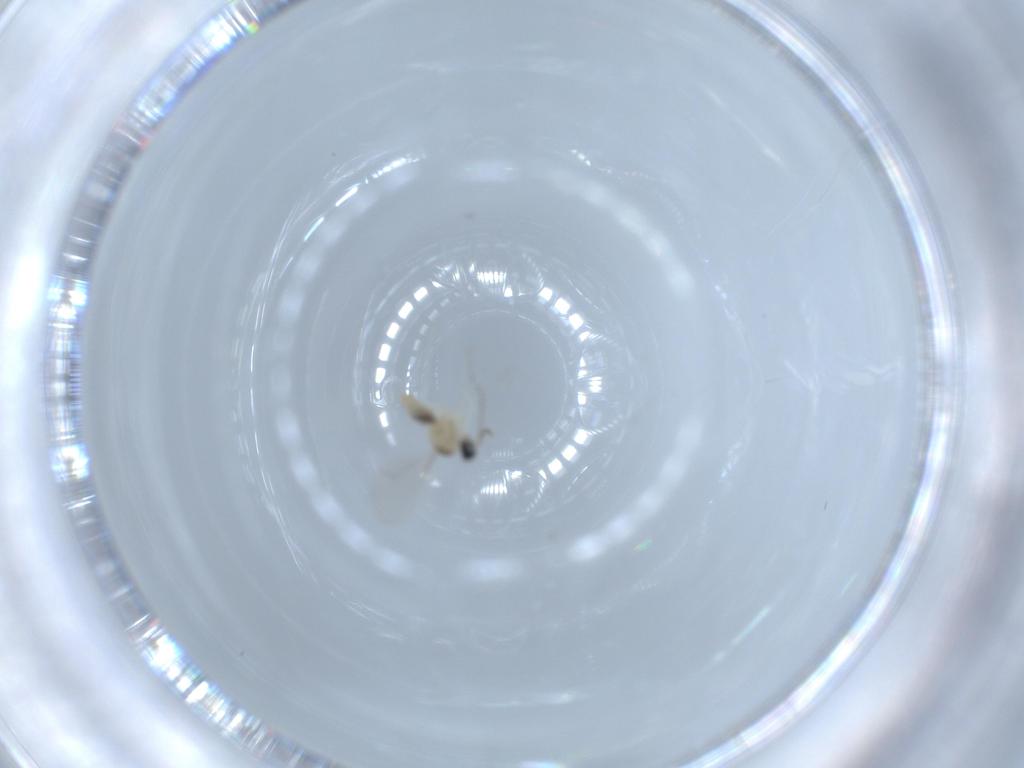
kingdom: Animalia
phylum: Arthropoda
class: Insecta
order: Diptera
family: Cecidomyiidae
